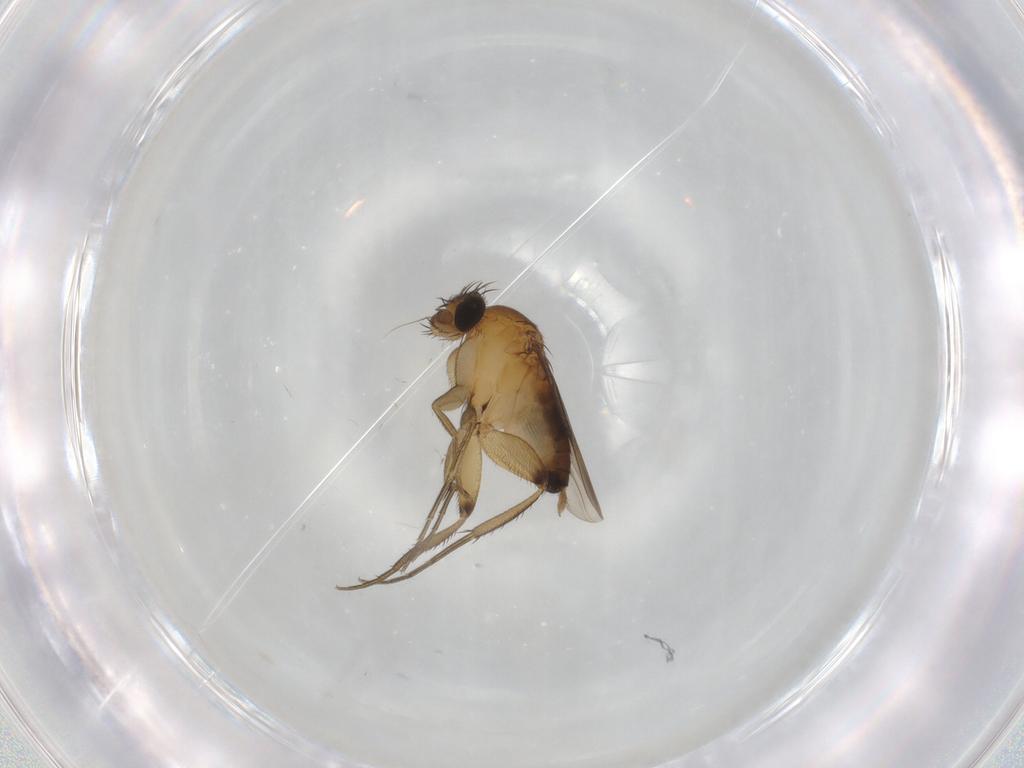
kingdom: Animalia
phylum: Arthropoda
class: Insecta
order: Diptera
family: Phoridae
